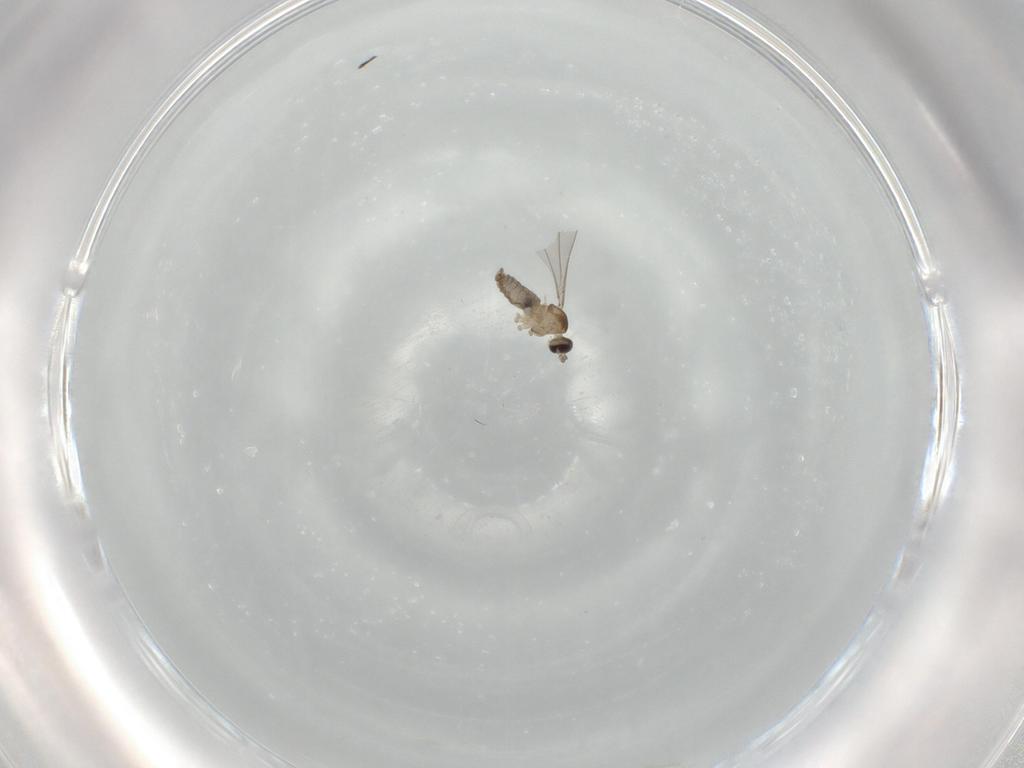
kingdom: Animalia
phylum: Arthropoda
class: Insecta
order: Diptera
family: Cecidomyiidae
